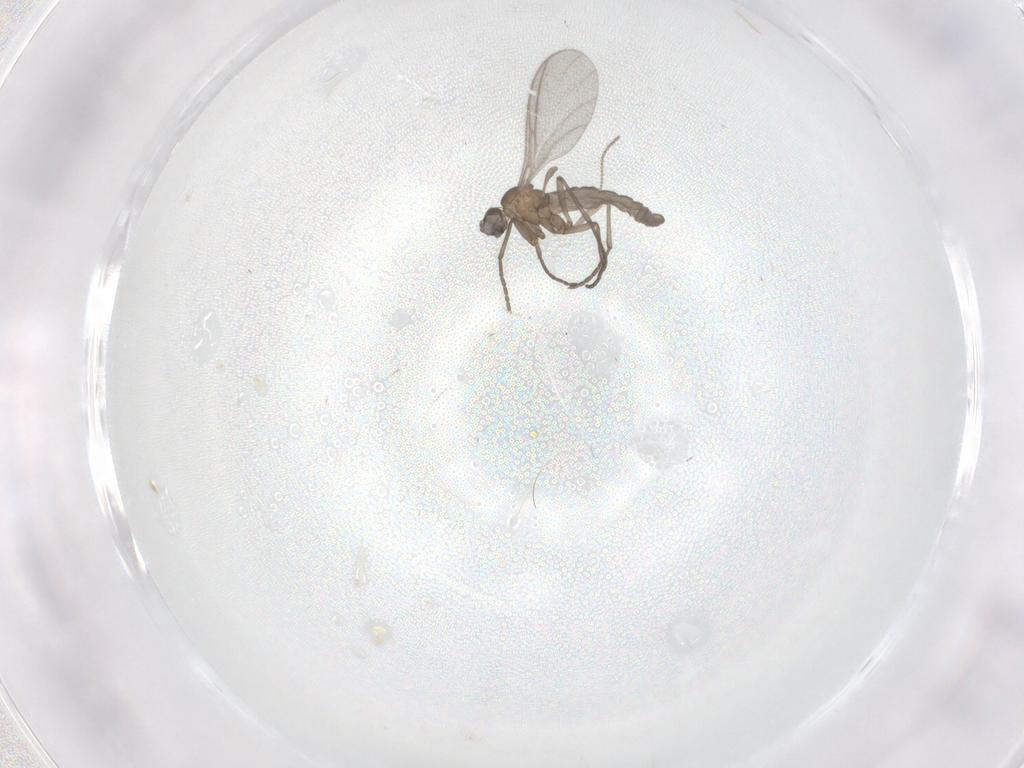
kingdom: Animalia
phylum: Arthropoda
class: Insecta
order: Diptera
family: Sciaridae
